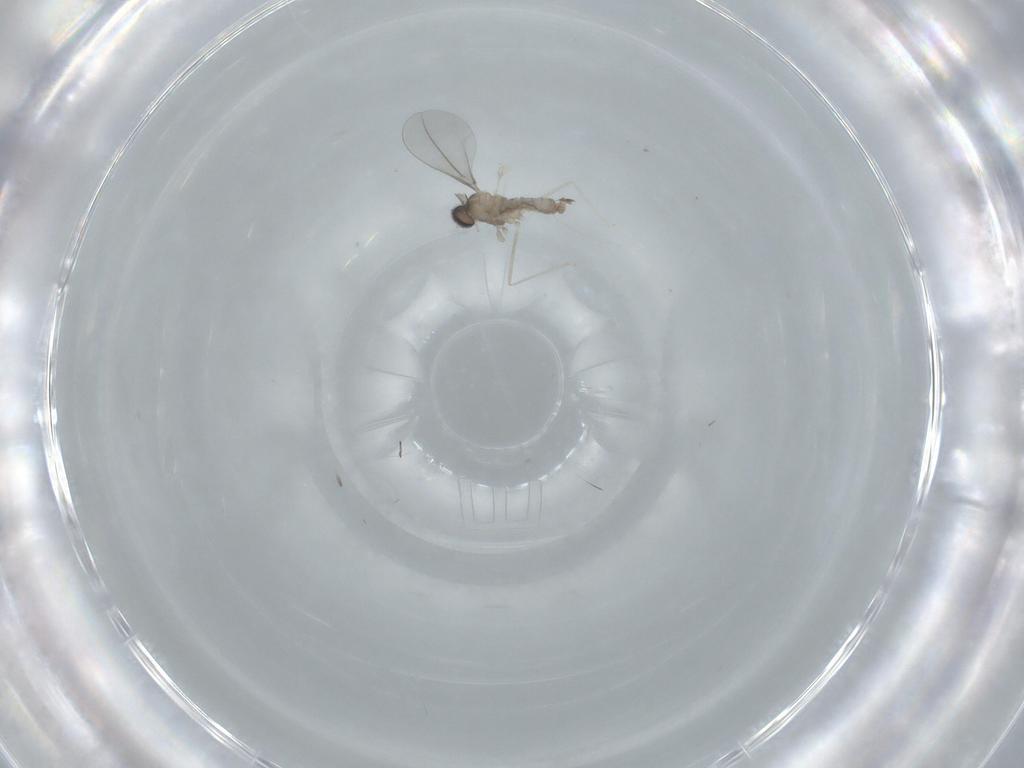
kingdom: Animalia
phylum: Arthropoda
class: Insecta
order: Diptera
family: Cecidomyiidae
